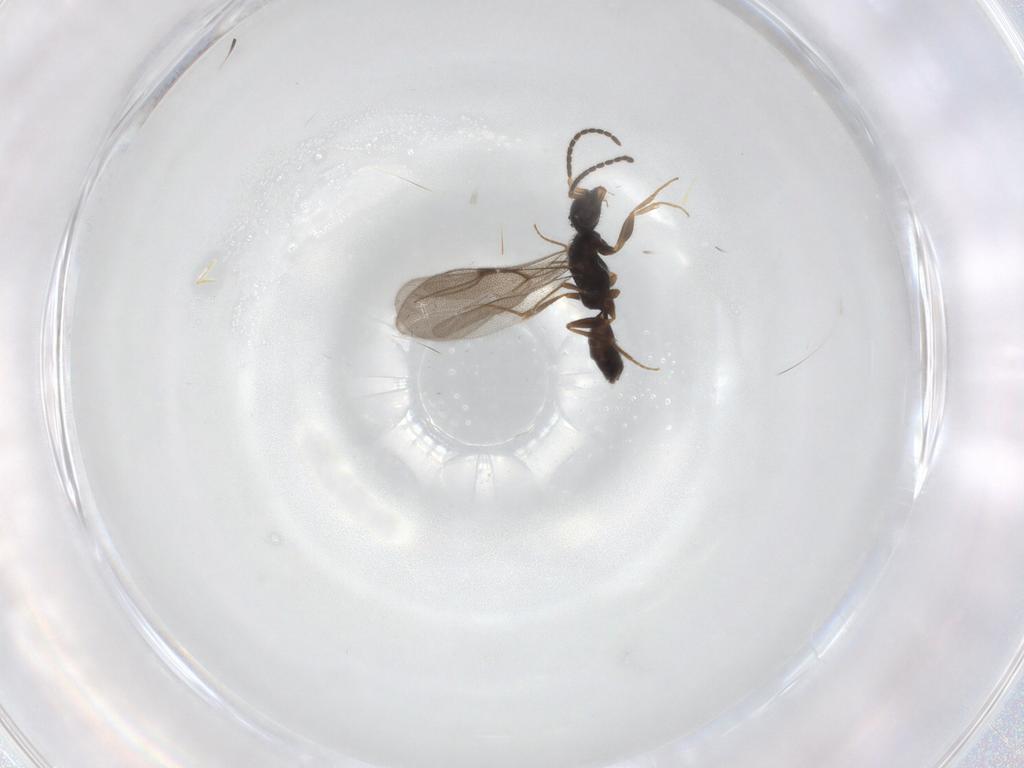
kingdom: Animalia
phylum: Arthropoda
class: Insecta
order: Hymenoptera
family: Bethylidae
